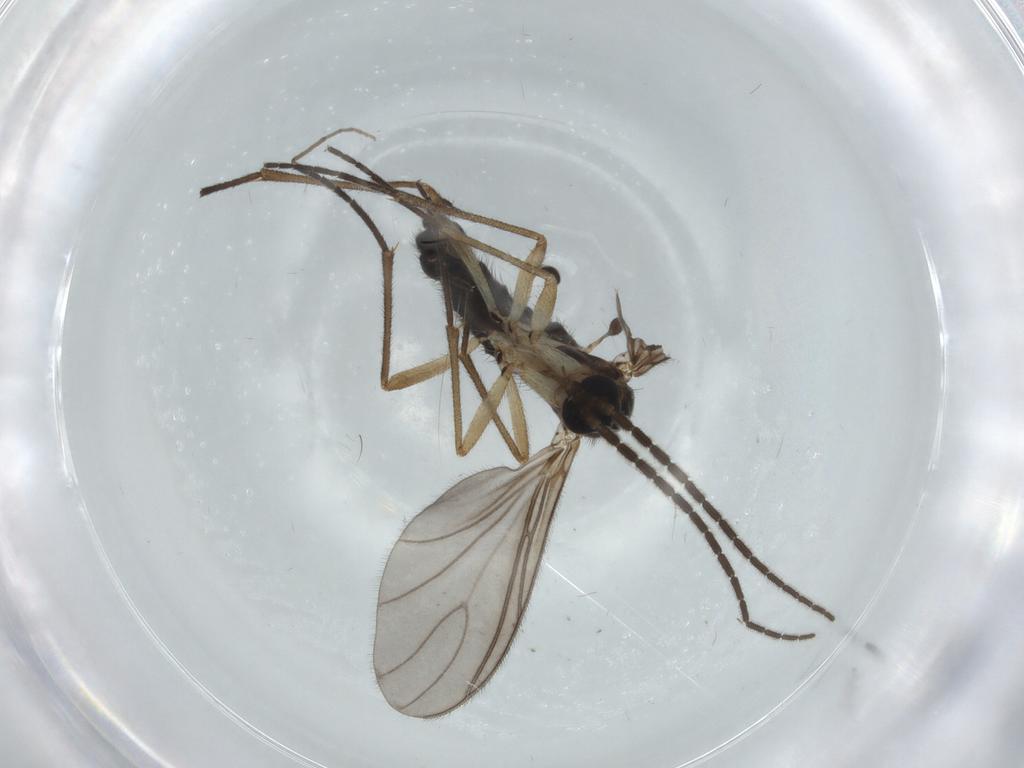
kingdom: Animalia
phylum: Arthropoda
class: Insecta
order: Diptera
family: Sciaridae
